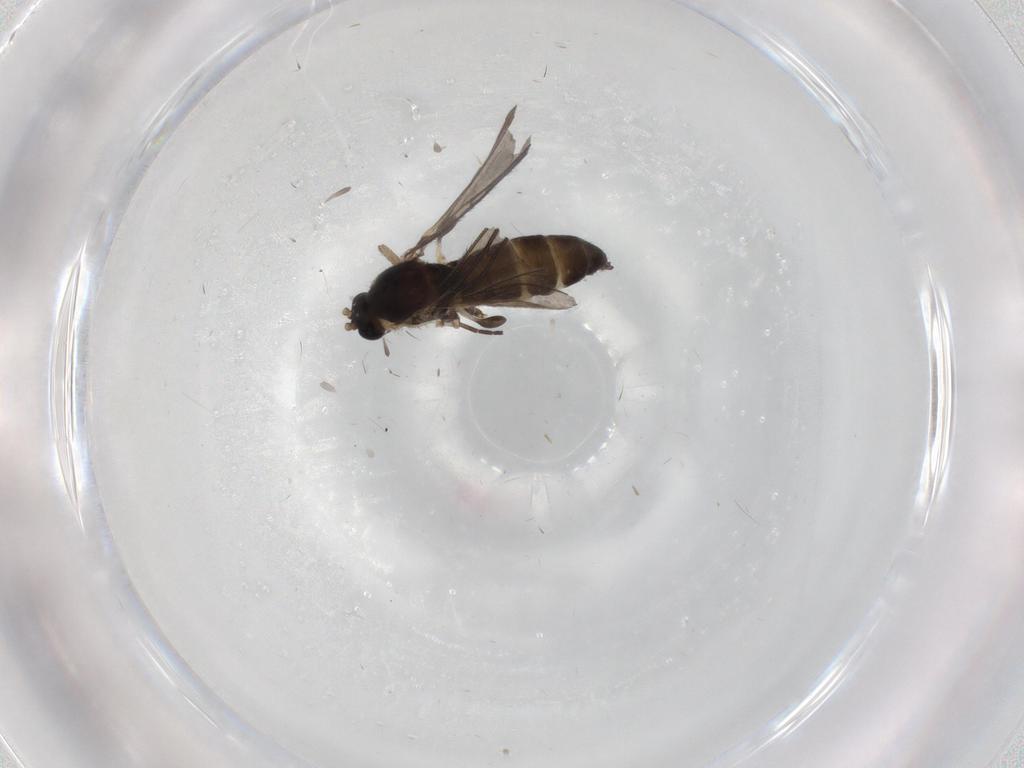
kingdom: Animalia
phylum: Arthropoda
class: Insecta
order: Diptera
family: Sciaridae
